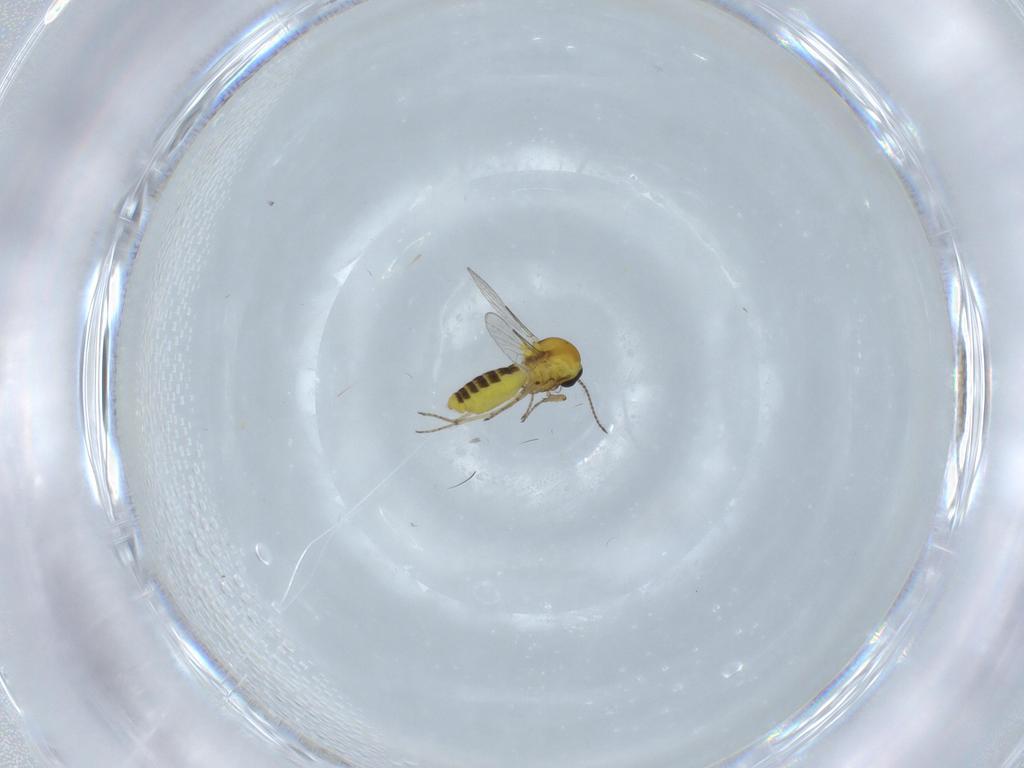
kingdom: Animalia
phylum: Arthropoda
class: Insecta
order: Diptera
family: Ceratopogonidae
